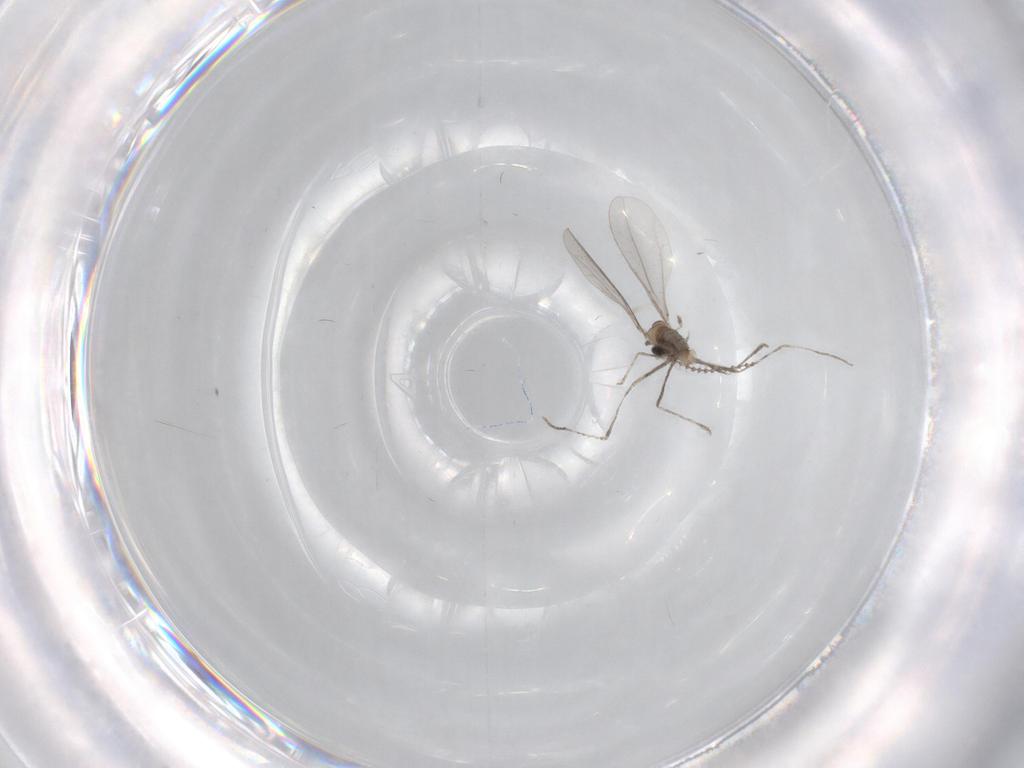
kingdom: Animalia
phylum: Arthropoda
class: Insecta
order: Diptera
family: Cecidomyiidae
